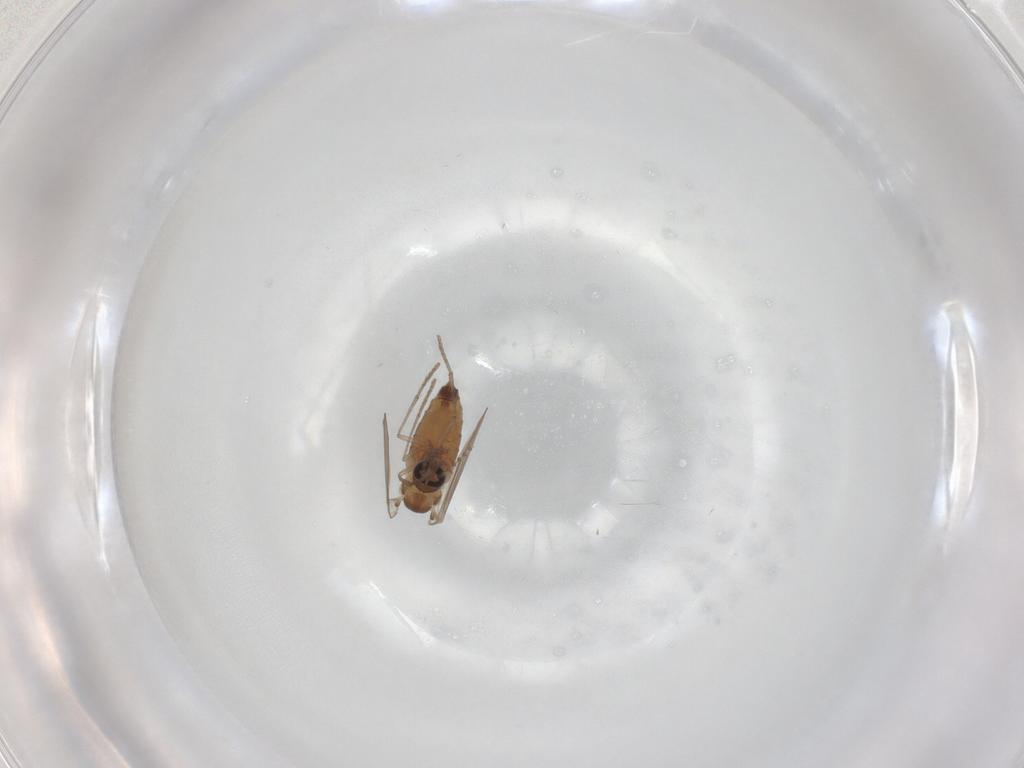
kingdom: Animalia
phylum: Arthropoda
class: Insecta
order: Diptera
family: Psychodidae
